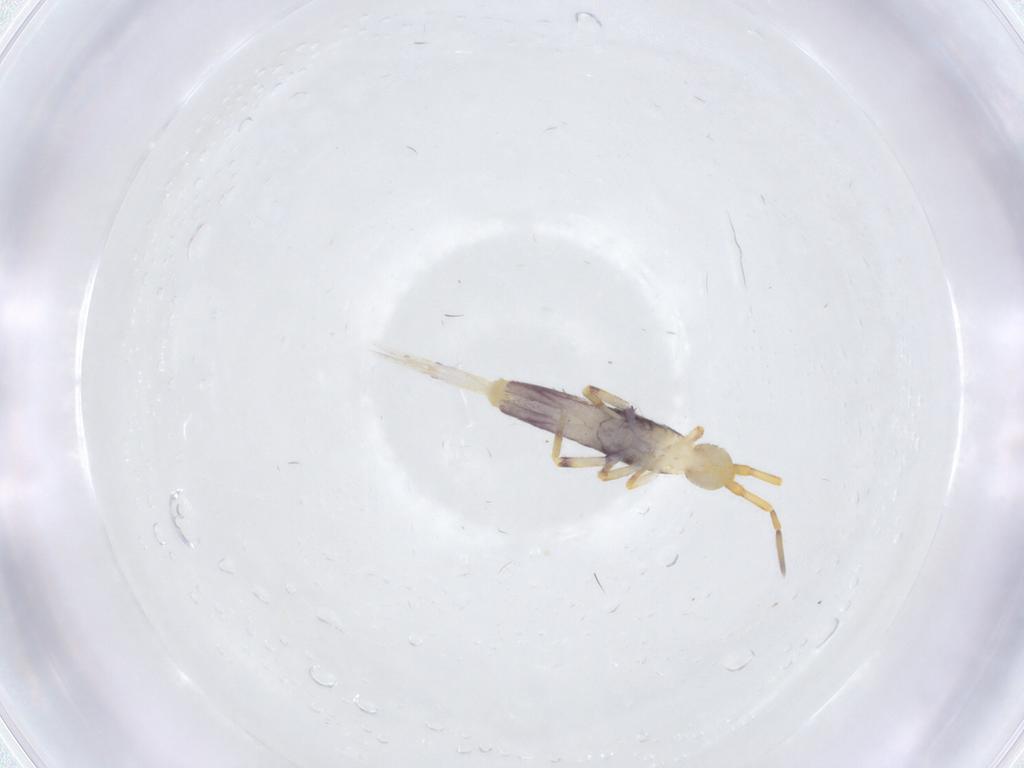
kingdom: Animalia
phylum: Arthropoda
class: Collembola
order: Entomobryomorpha
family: Entomobryidae
